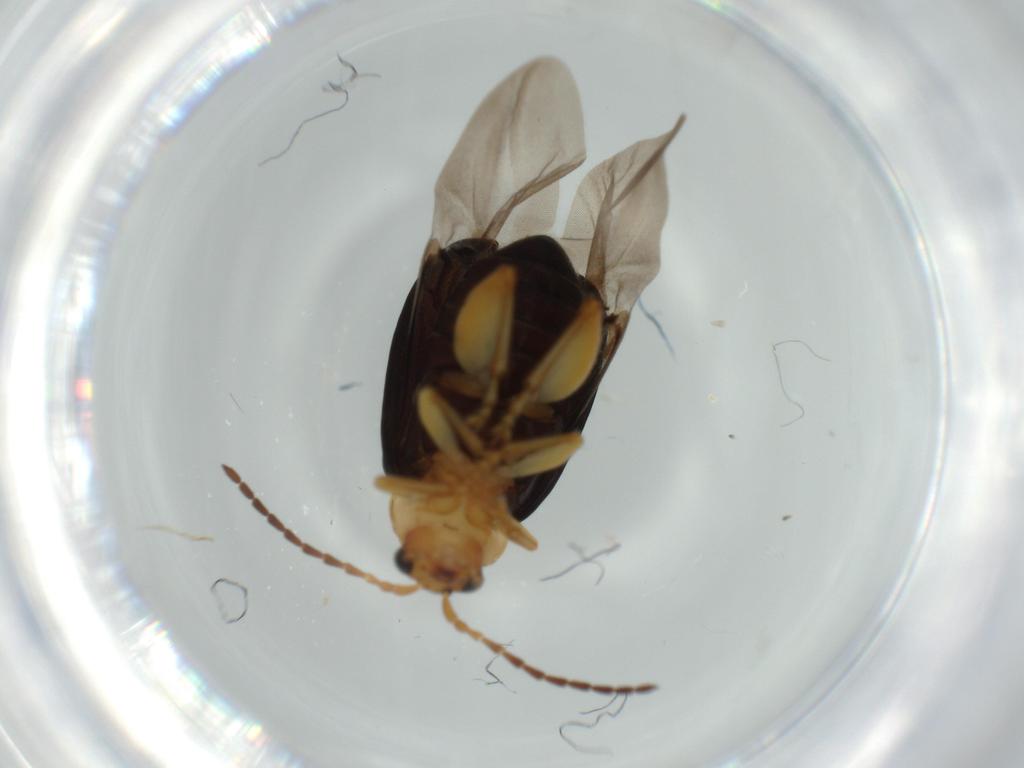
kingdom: Animalia
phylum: Arthropoda
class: Insecta
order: Coleoptera
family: Chrysomelidae
